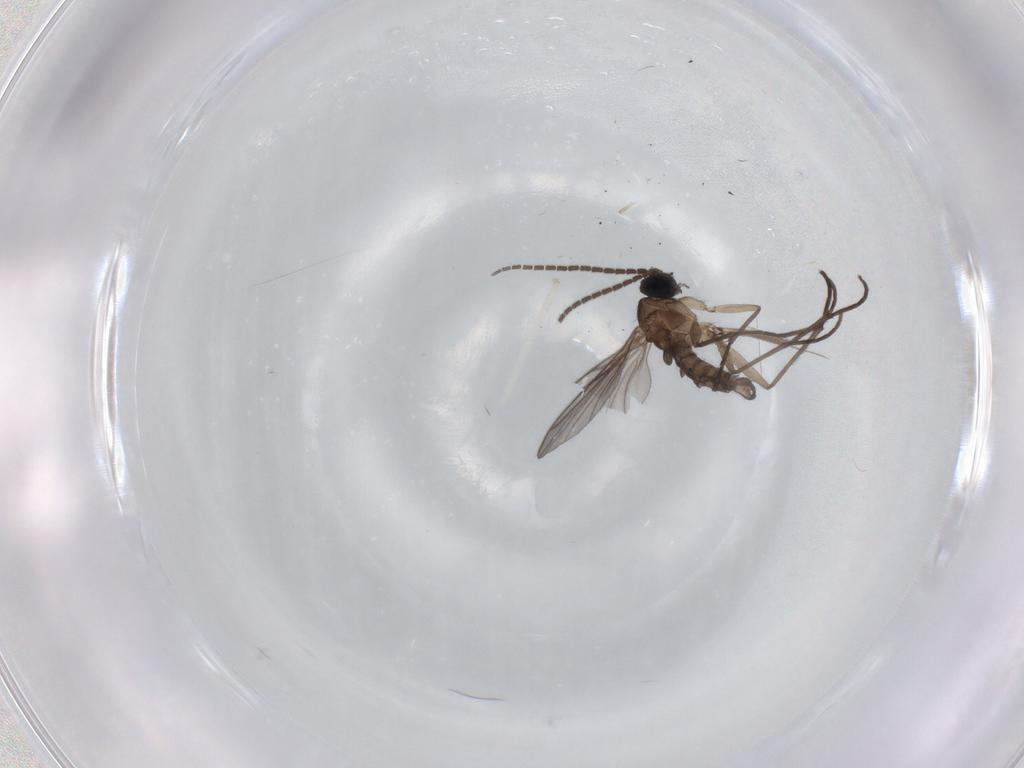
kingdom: Animalia
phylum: Arthropoda
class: Insecta
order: Diptera
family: Sciaridae
